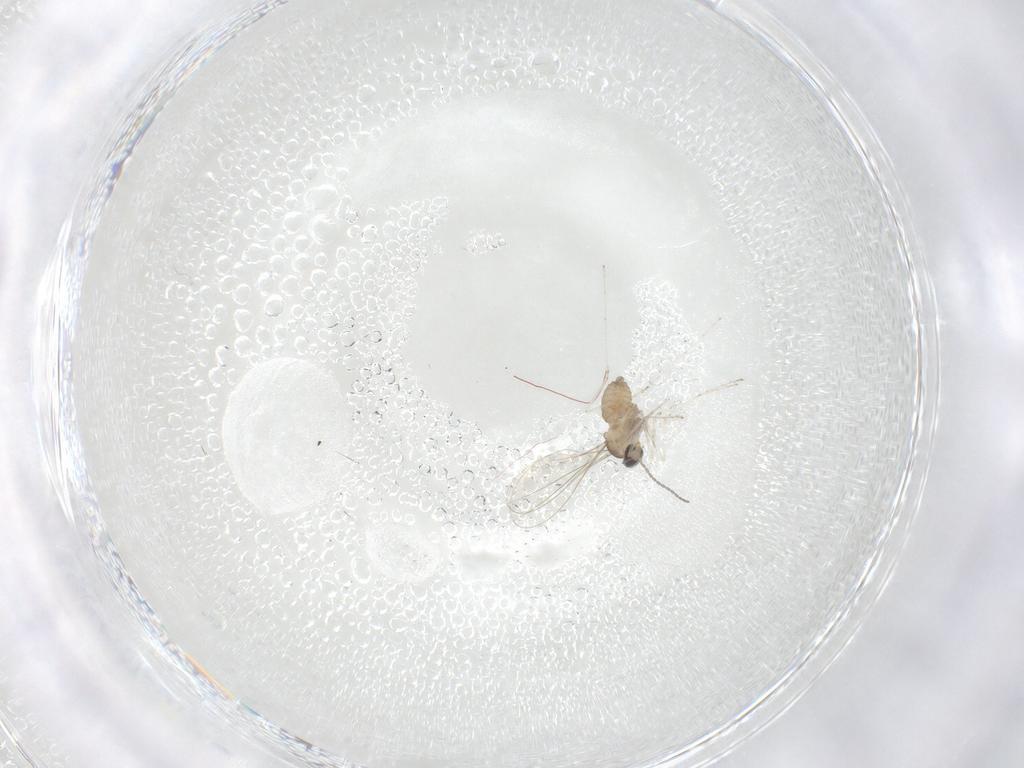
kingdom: Animalia
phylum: Arthropoda
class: Insecta
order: Diptera
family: Cecidomyiidae
